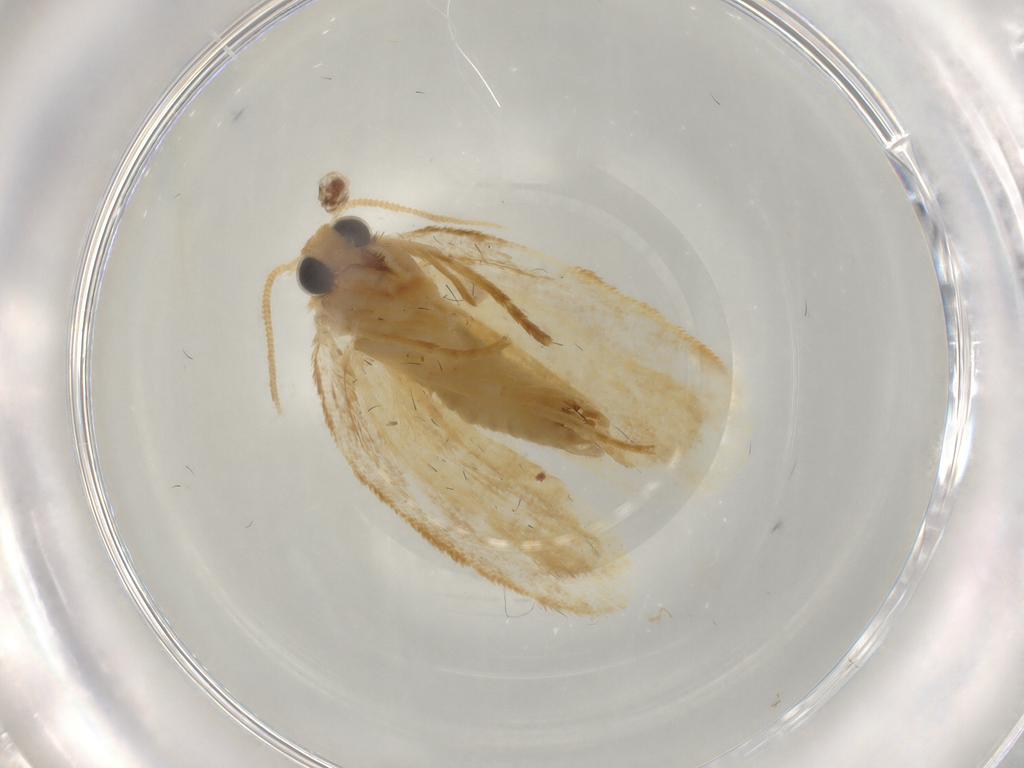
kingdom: Animalia
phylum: Arthropoda
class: Insecta
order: Lepidoptera
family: Psychidae
